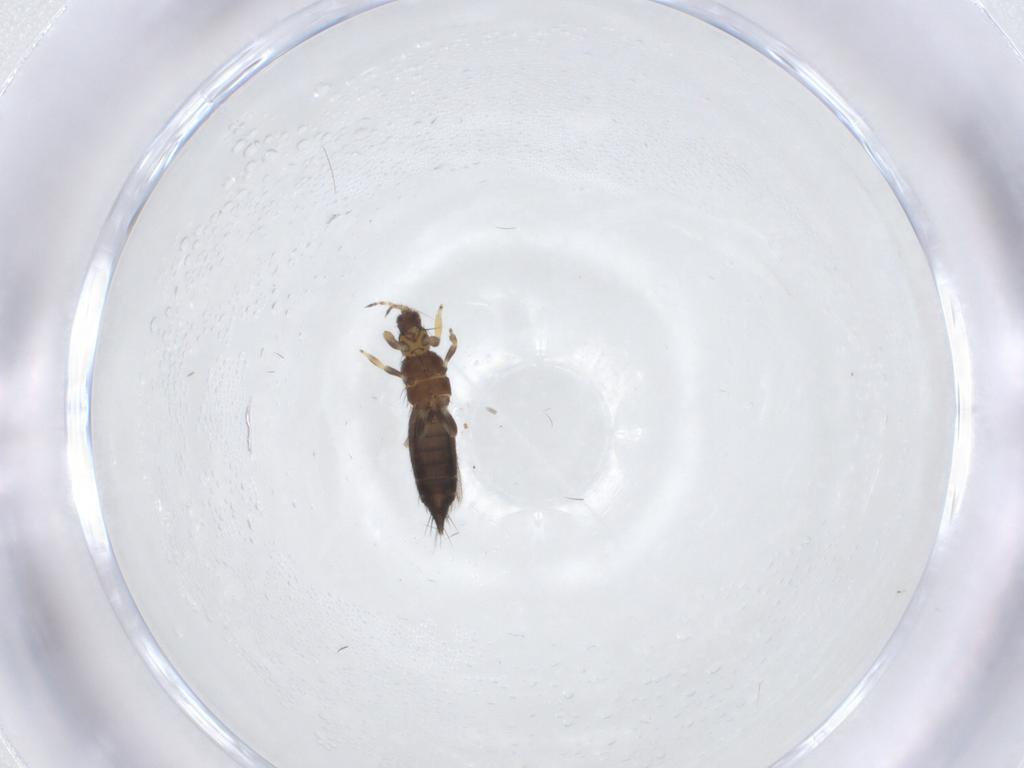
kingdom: Animalia
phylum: Arthropoda
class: Insecta
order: Thysanoptera
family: Thripidae
